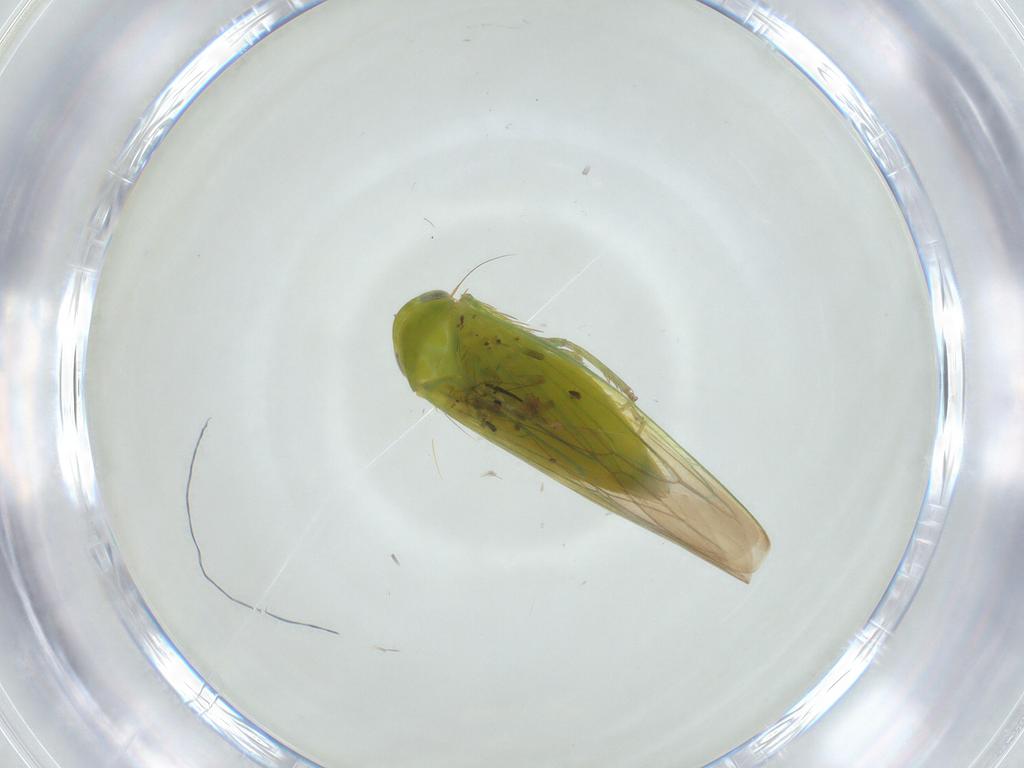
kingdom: Animalia
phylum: Arthropoda
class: Insecta
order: Hemiptera
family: Cicadellidae
